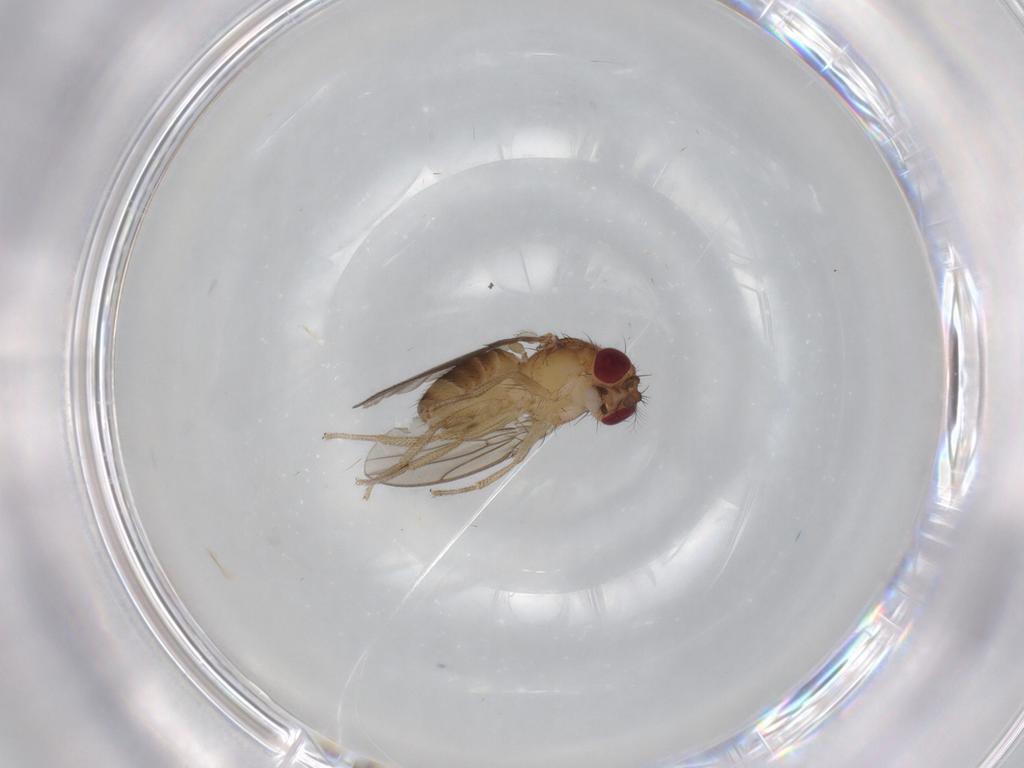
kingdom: Animalia
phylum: Arthropoda
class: Insecta
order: Diptera
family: Drosophilidae
